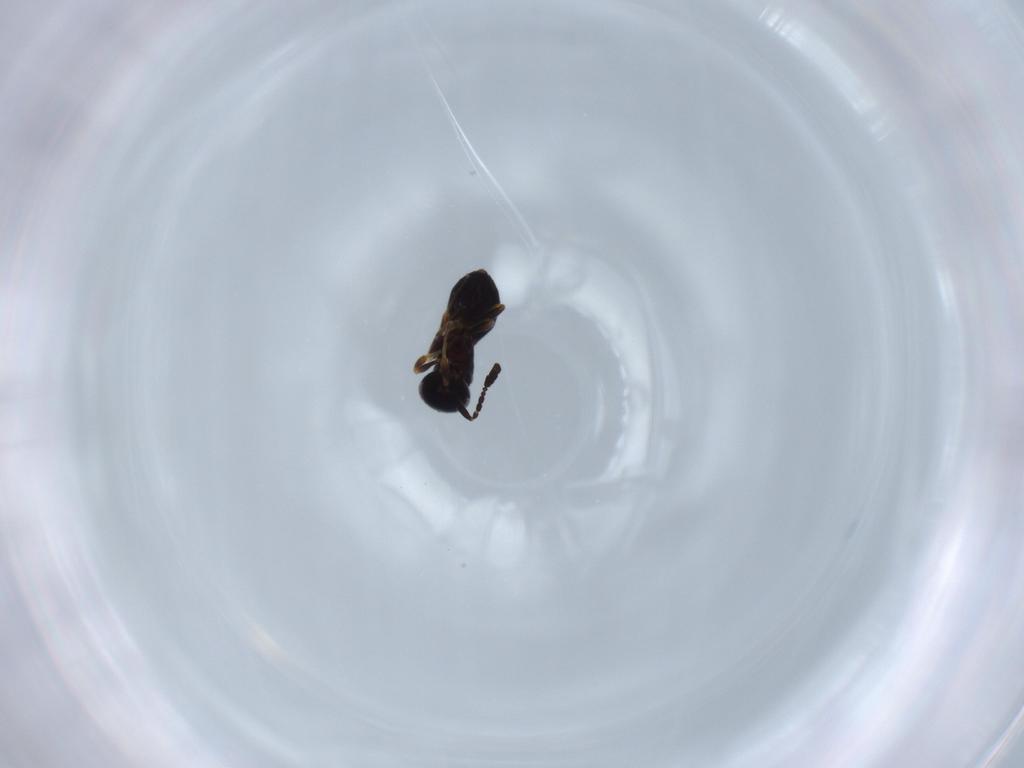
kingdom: Animalia
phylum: Arthropoda
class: Insecta
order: Hymenoptera
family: Scelionidae
